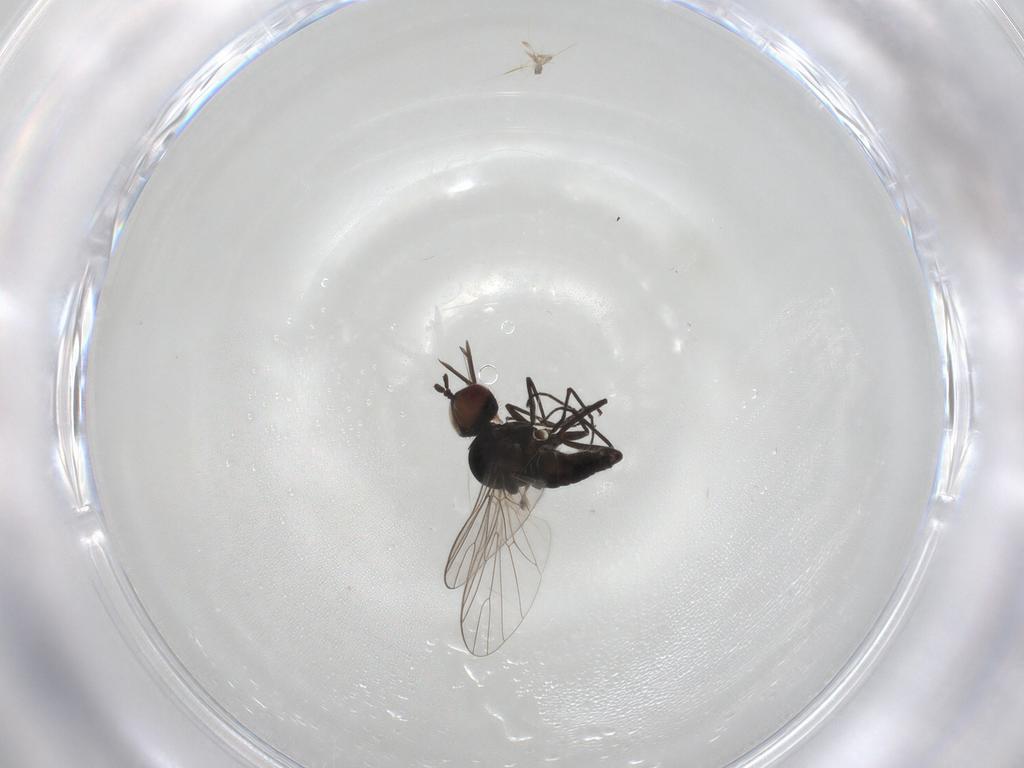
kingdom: Animalia
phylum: Arthropoda
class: Insecta
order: Diptera
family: Bombyliidae
